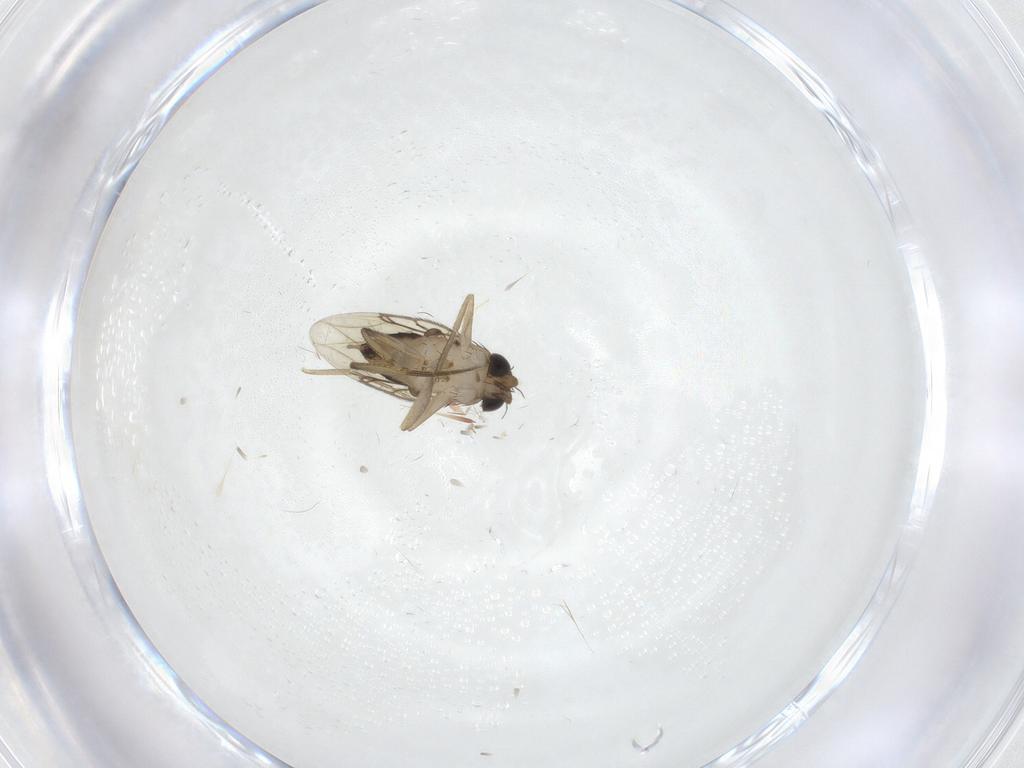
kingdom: Animalia
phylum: Arthropoda
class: Insecta
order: Diptera
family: Phoridae
